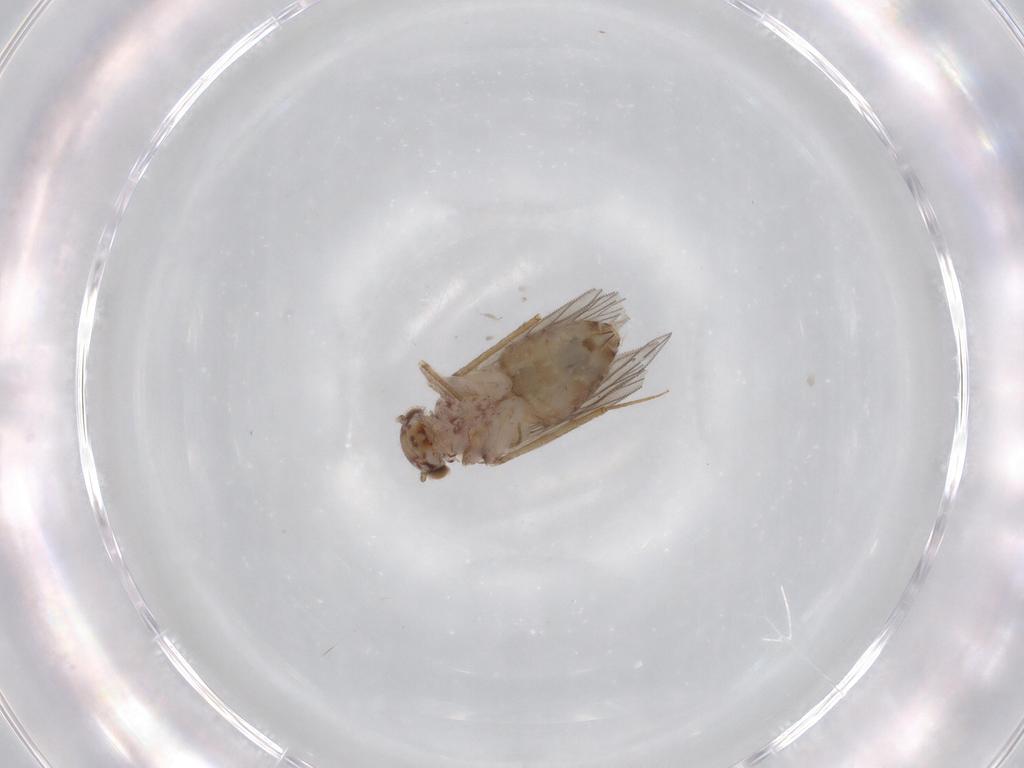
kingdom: Animalia
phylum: Arthropoda
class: Insecta
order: Psocodea
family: Lepidopsocidae
